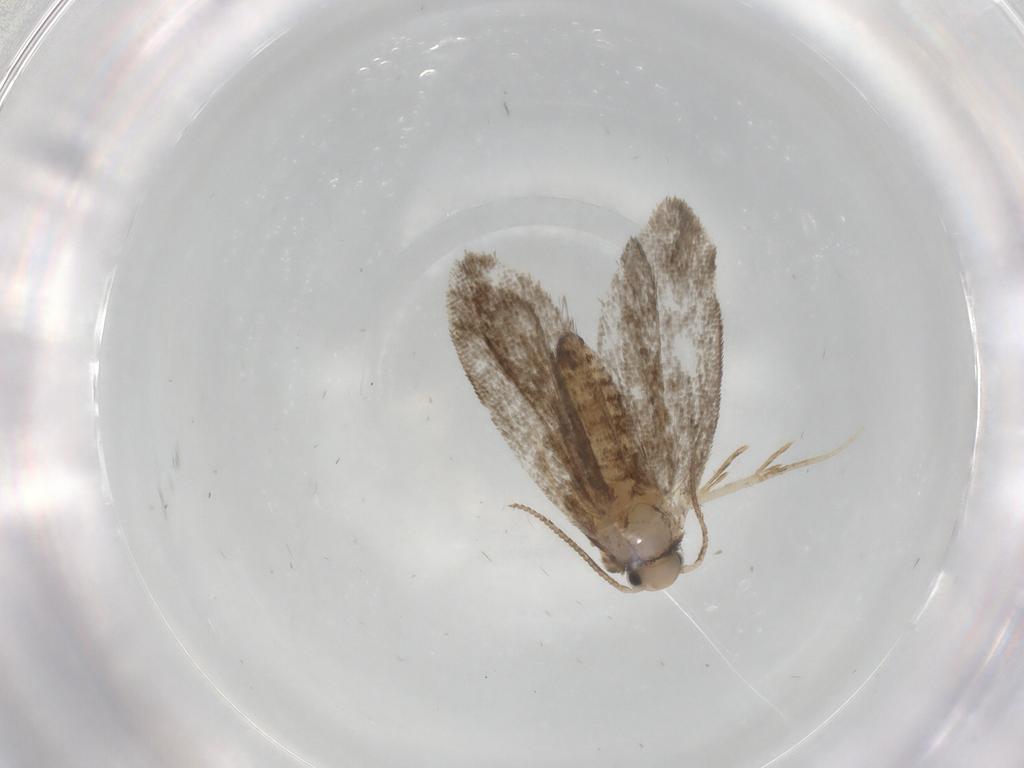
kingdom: Animalia
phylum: Arthropoda
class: Insecta
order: Lepidoptera
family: Psychidae
